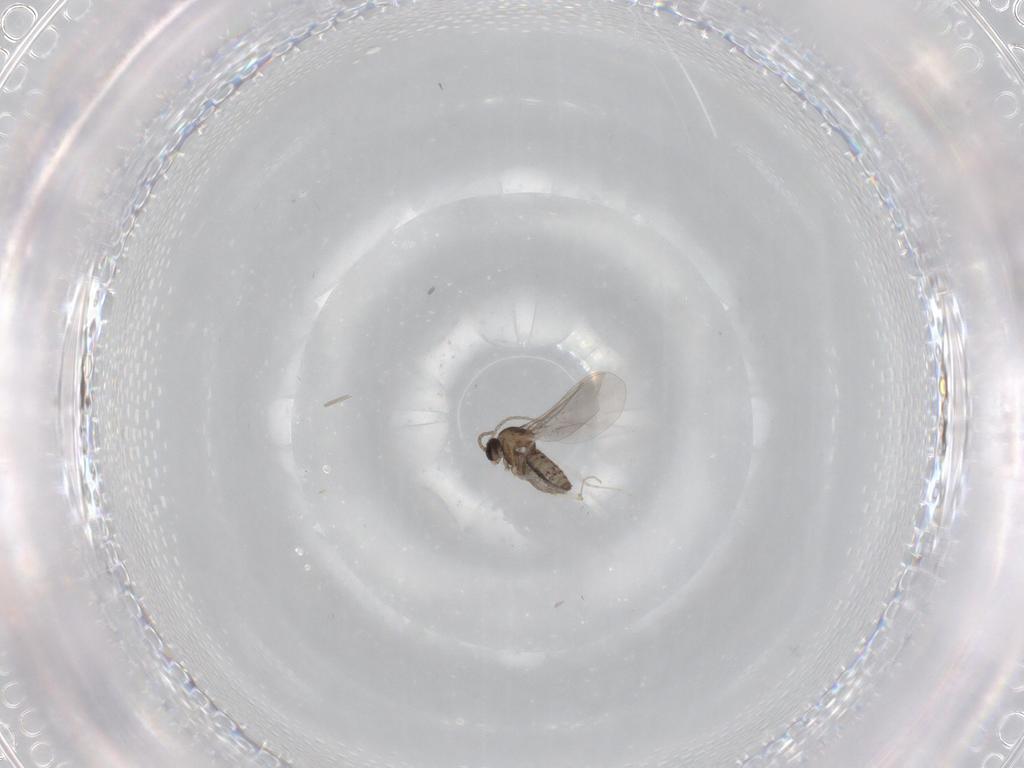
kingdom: Animalia
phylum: Arthropoda
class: Insecta
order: Diptera
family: Cecidomyiidae
